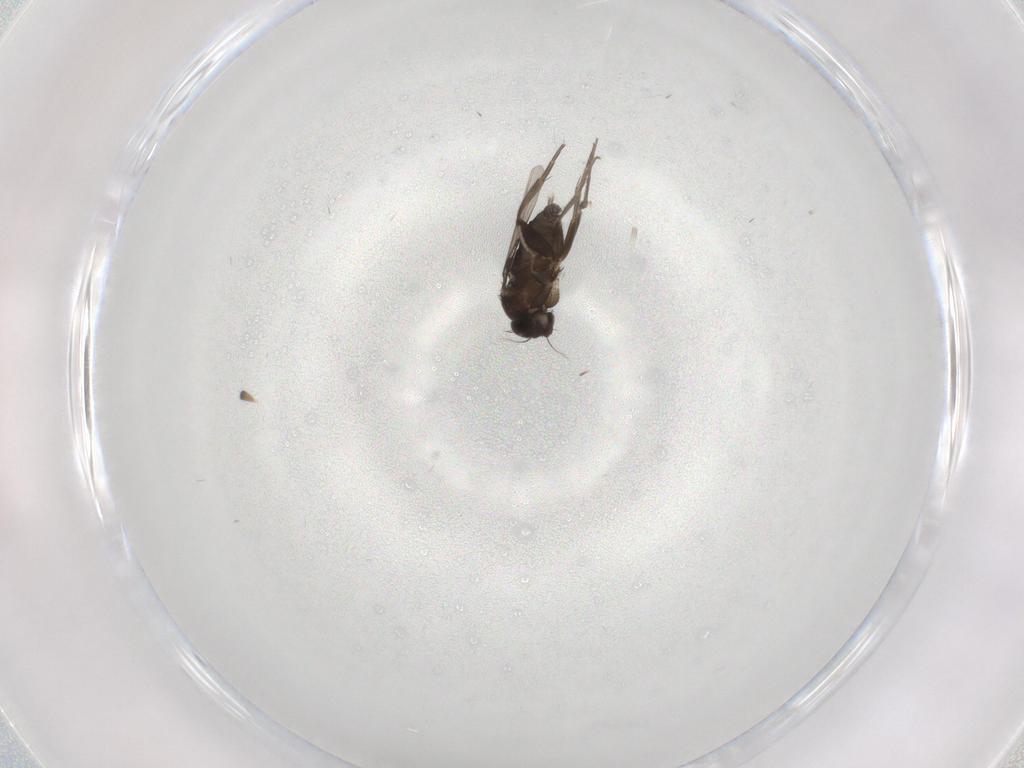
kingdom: Animalia
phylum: Arthropoda
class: Insecta
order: Diptera
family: Phoridae
